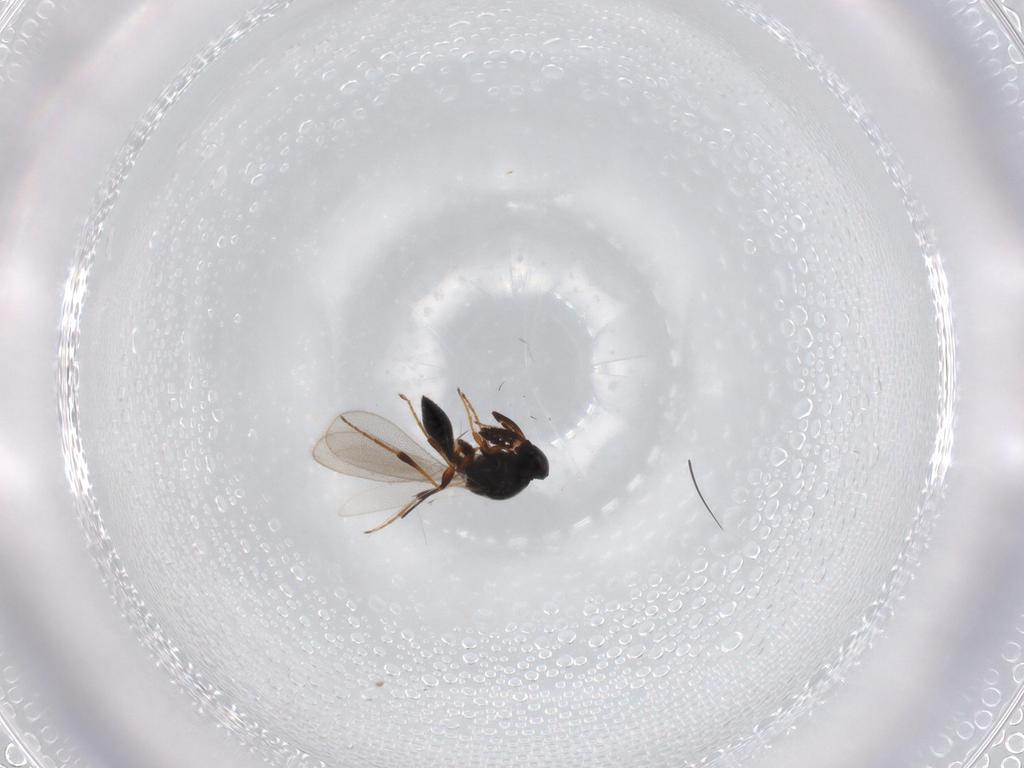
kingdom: Animalia
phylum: Arthropoda
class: Insecta
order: Hymenoptera
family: Platygastridae
